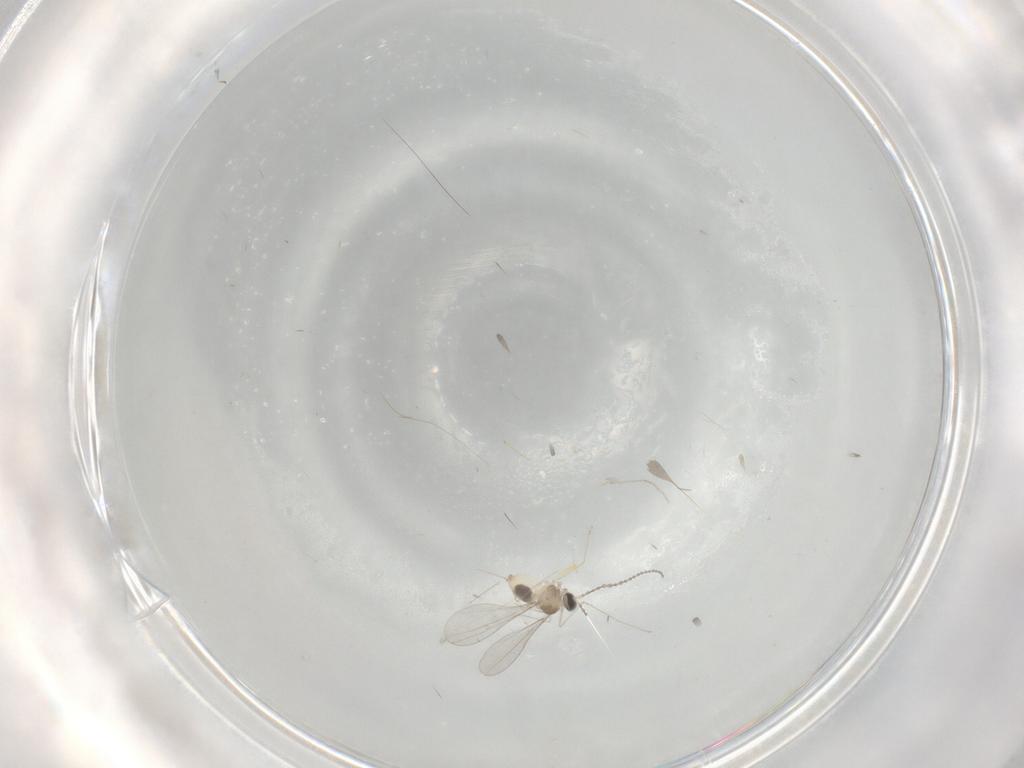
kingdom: Animalia
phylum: Arthropoda
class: Insecta
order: Diptera
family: Cecidomyiidae
